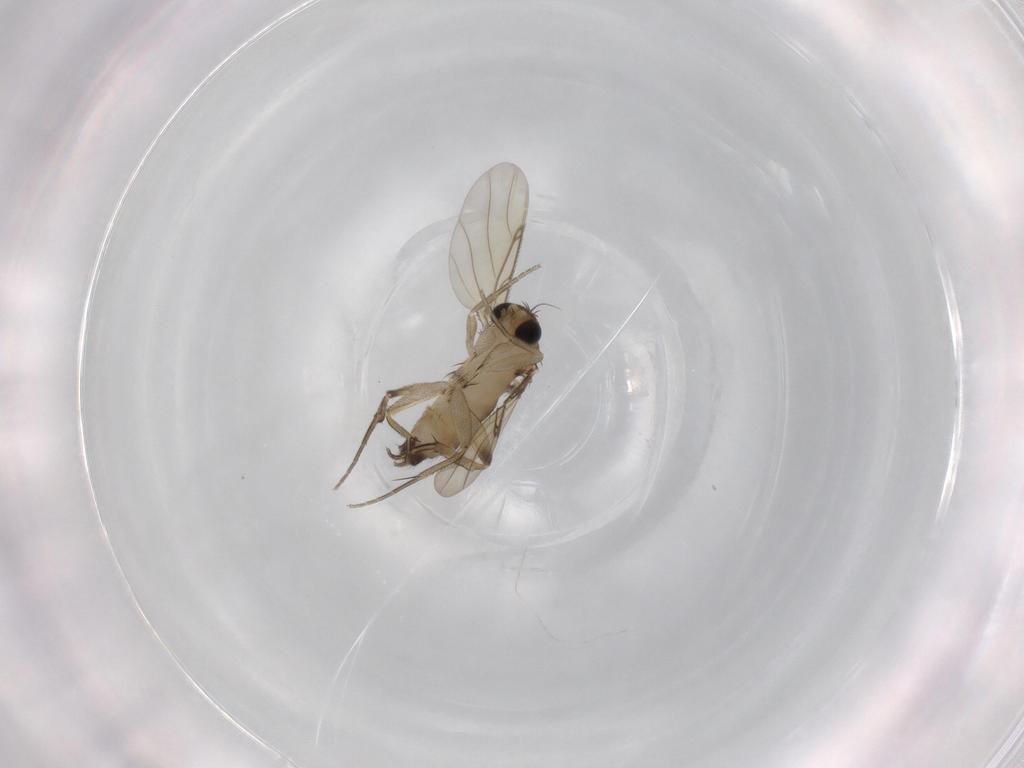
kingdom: Animalia
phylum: Arthropoda
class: Insecta
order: Diptera
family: Phoridae
